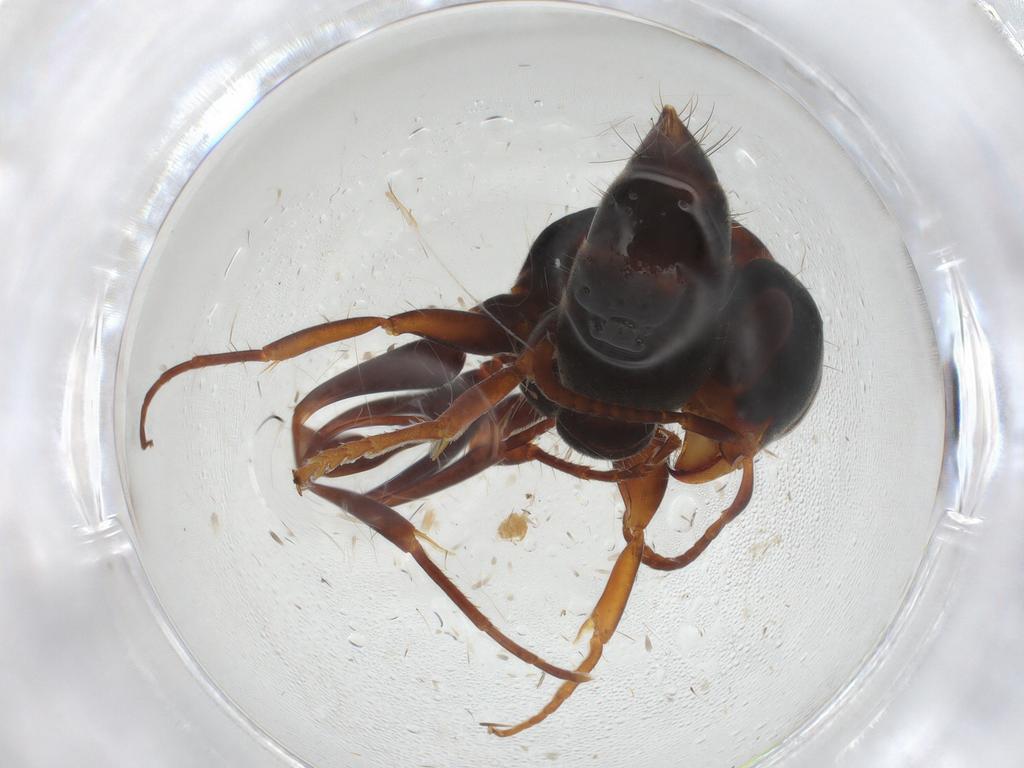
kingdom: Animalia
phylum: Arthropoda
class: Insecta
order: Hymenoptera
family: Formicidae
